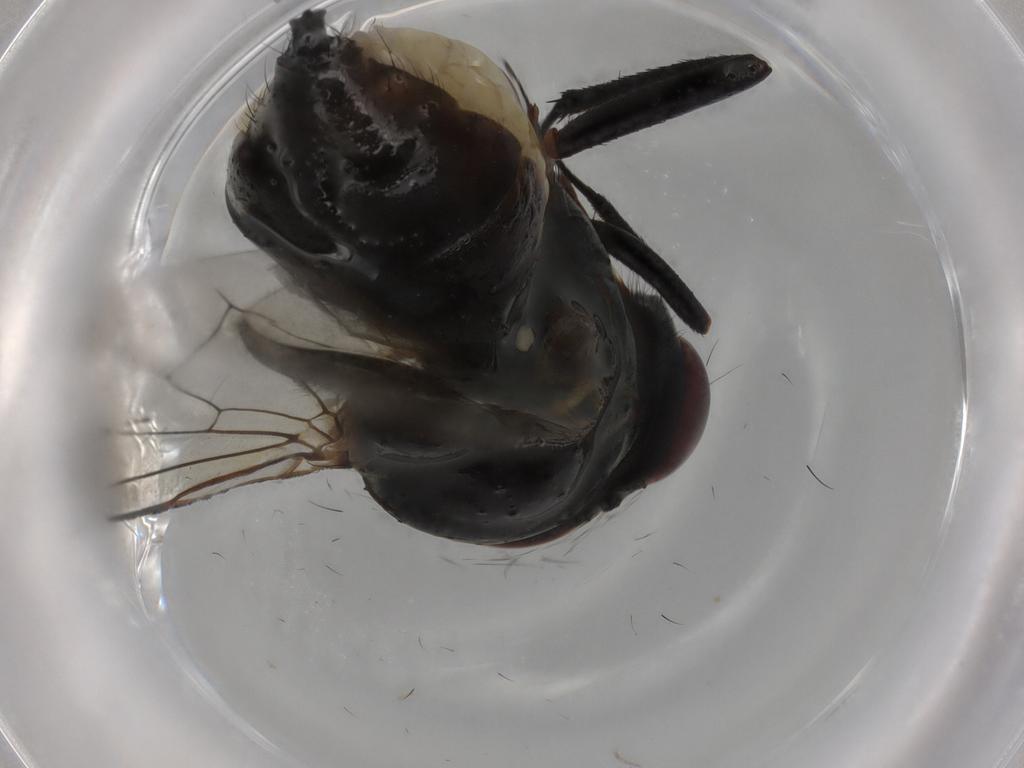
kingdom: Animalia
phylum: Arthropoda
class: Insecta
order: Diptera
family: Anthomyiidae
